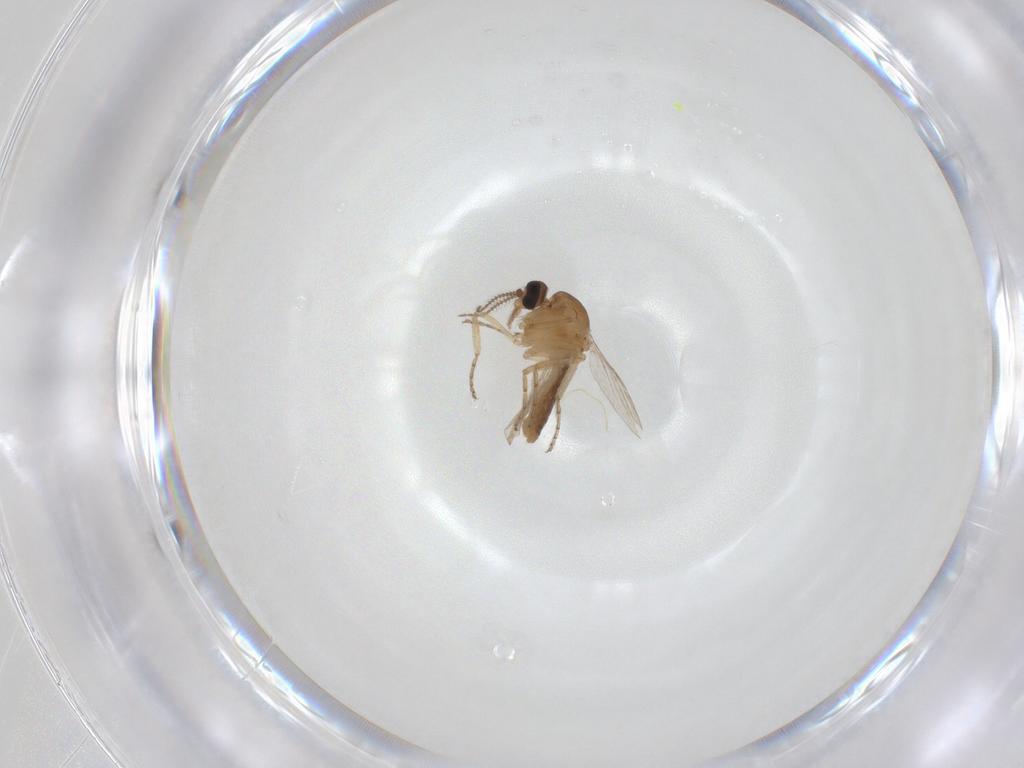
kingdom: Animalia
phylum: Arthropoda
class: Insecta
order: Diptera
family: Ceratopogonidae
